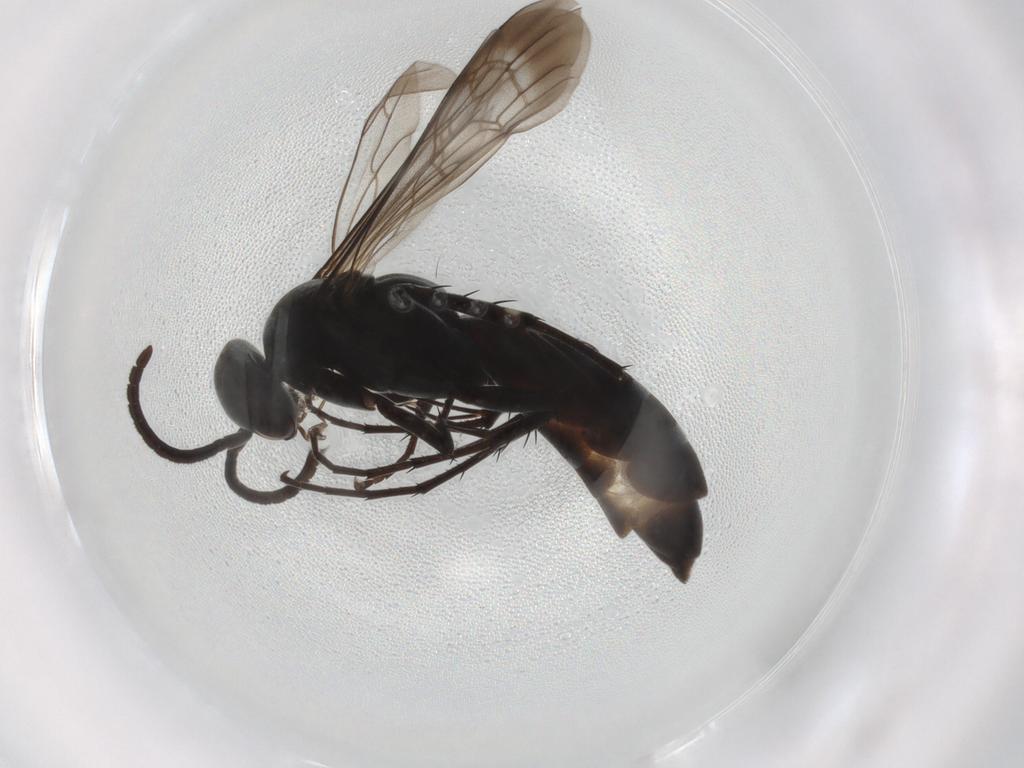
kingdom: Animalia
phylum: Arthropoda
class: Insecta
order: Hymenoptera
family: Pompilidae
